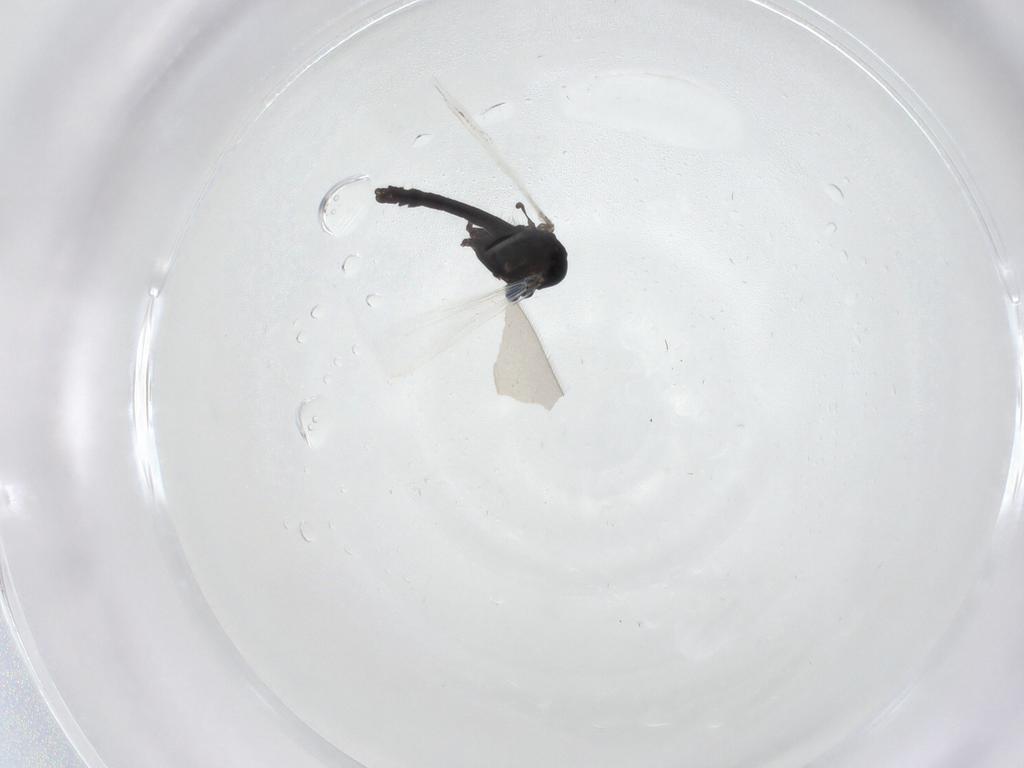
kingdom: Animalia
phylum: Arthropoda
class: Insecta
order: Diptera
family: Chironomidae
